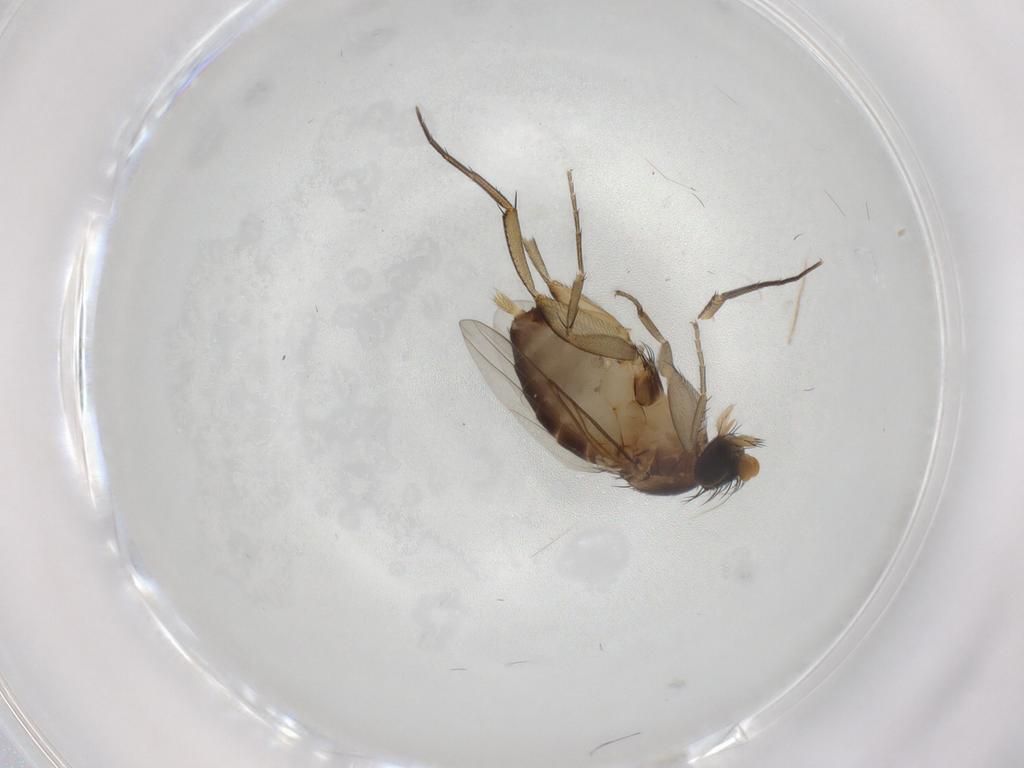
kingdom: Animalia
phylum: Arthropoda
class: Insecta
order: Diptera
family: Phoridae
